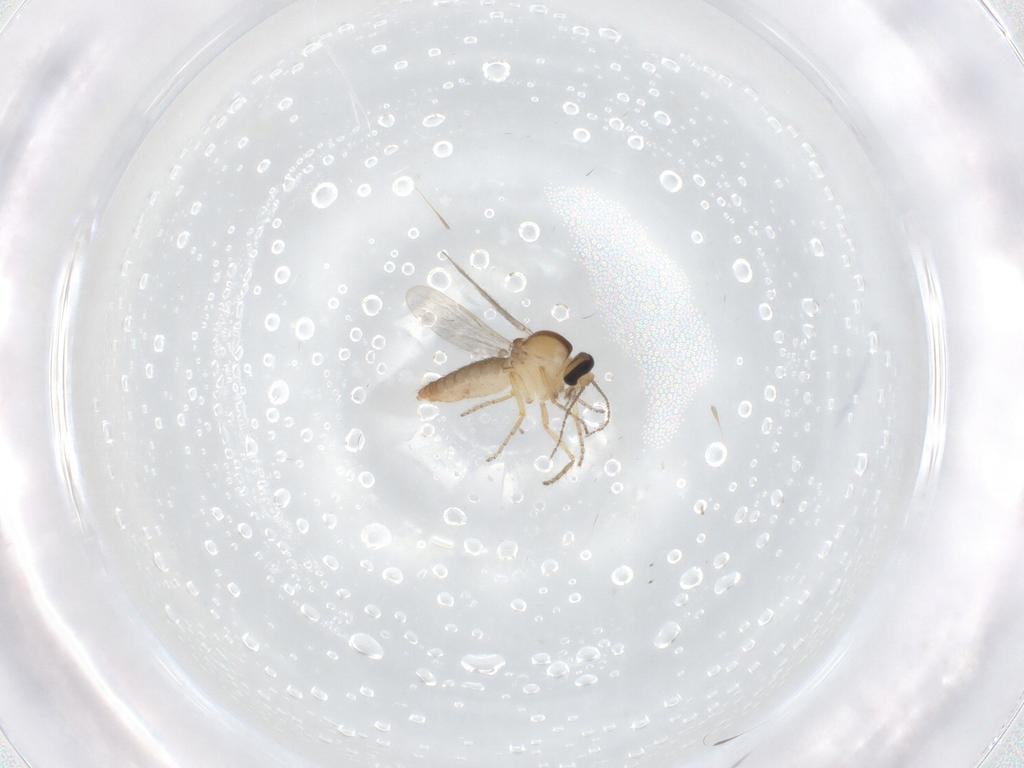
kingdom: Animalia
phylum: Arthropoda
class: Insecta
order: Diptera
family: Ceratopogonidae
